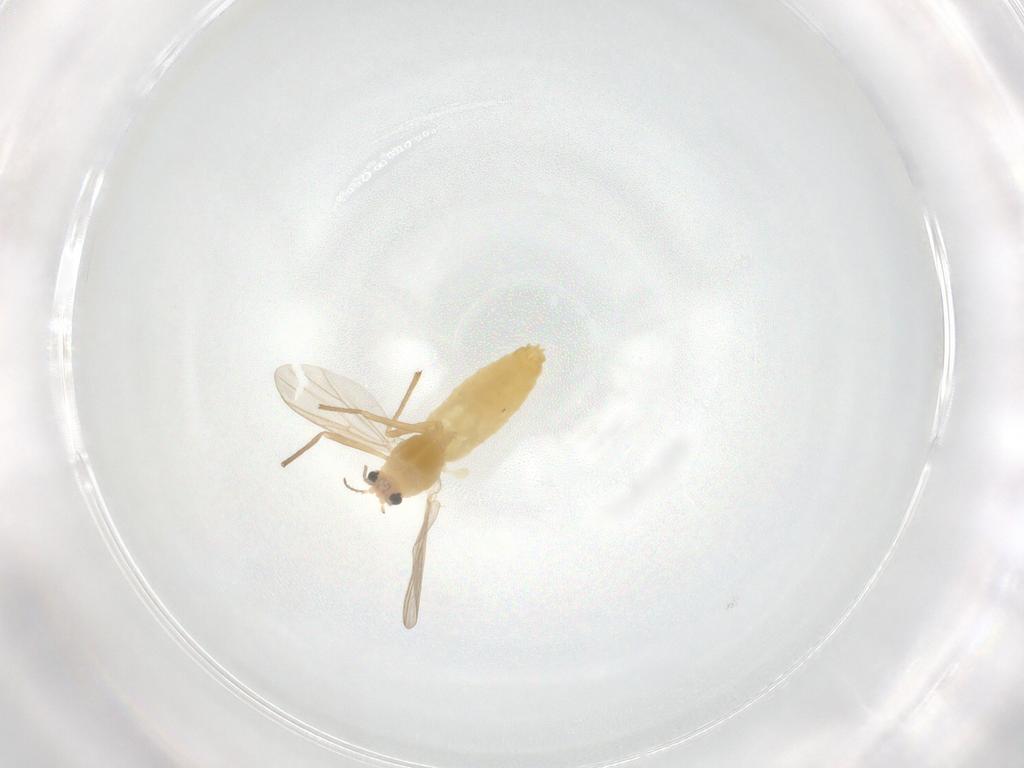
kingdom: Animalia
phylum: Arthropoda
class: Insecta
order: Diptera
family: Chironomidae
